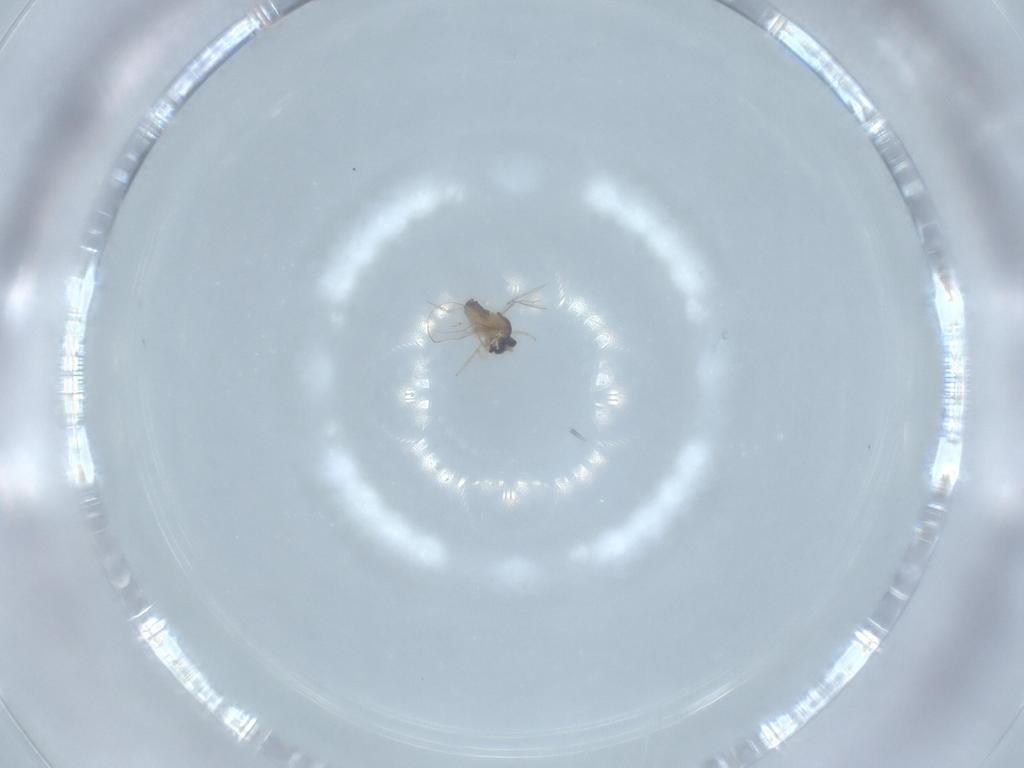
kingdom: Animalia
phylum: Arthropoda
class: Insecta
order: Diptera
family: Cecidomyiidae
